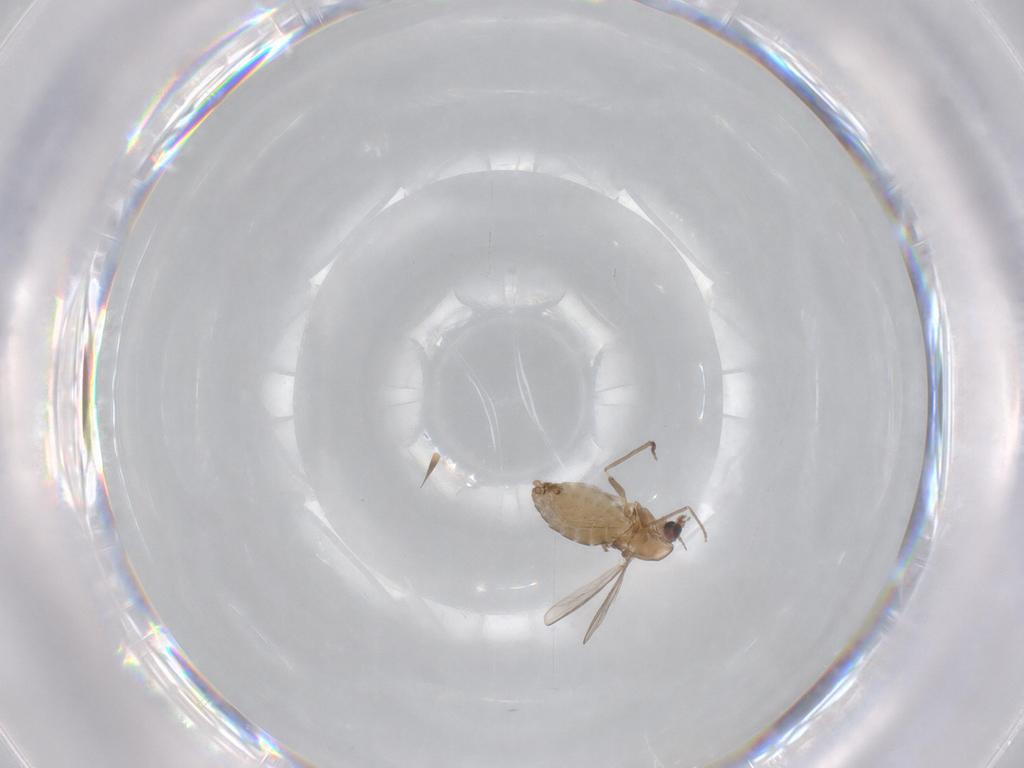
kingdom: Animalia
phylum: Arthropoda
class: Insecta
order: Diptera
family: Chironomidae
